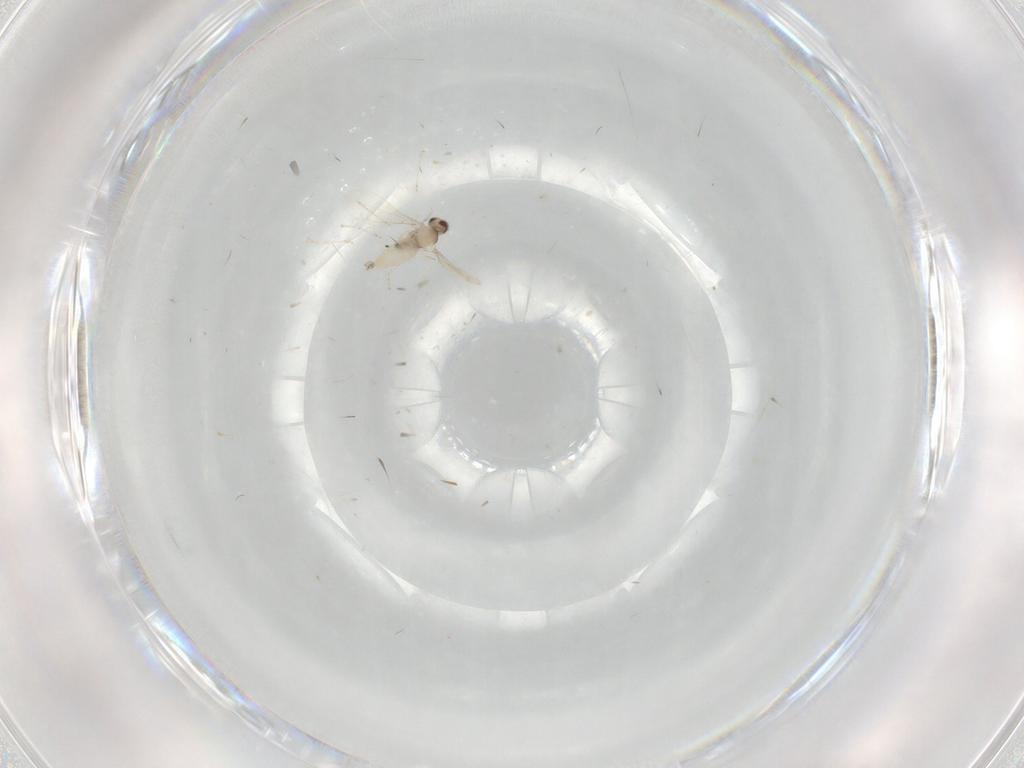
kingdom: Animalia
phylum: Arthropoda
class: Insecta
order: Diptera
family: Cecidomyiidae
